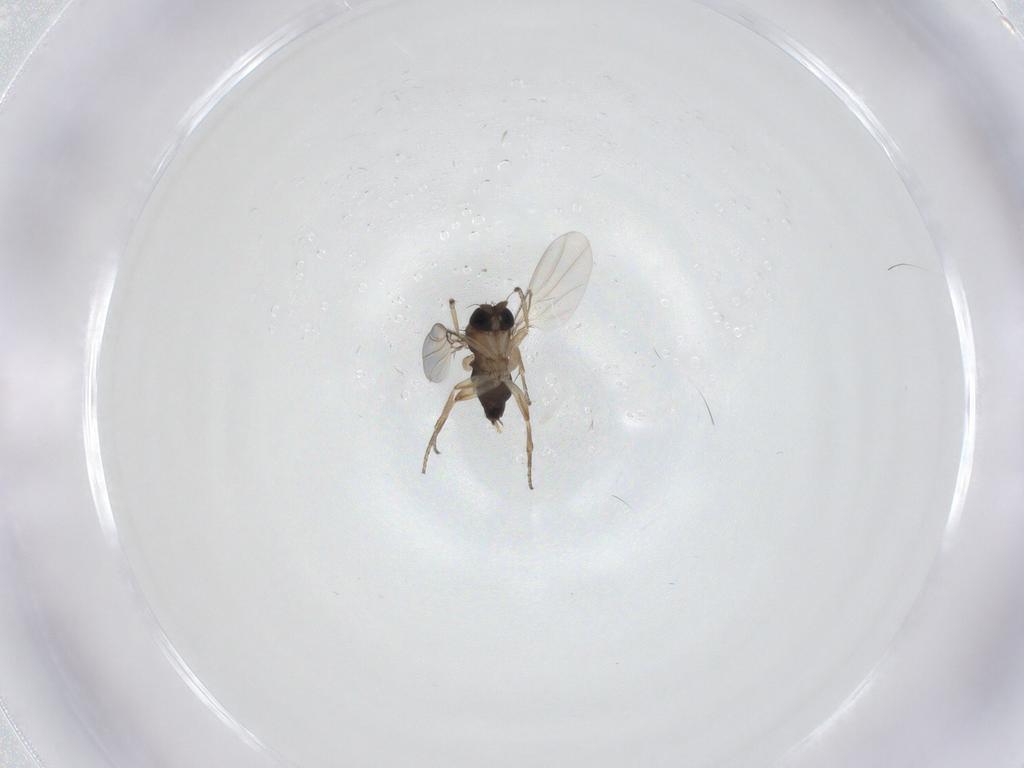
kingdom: Animalia
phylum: Arthropoda
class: Insecta
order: Diptera
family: Phoridae
